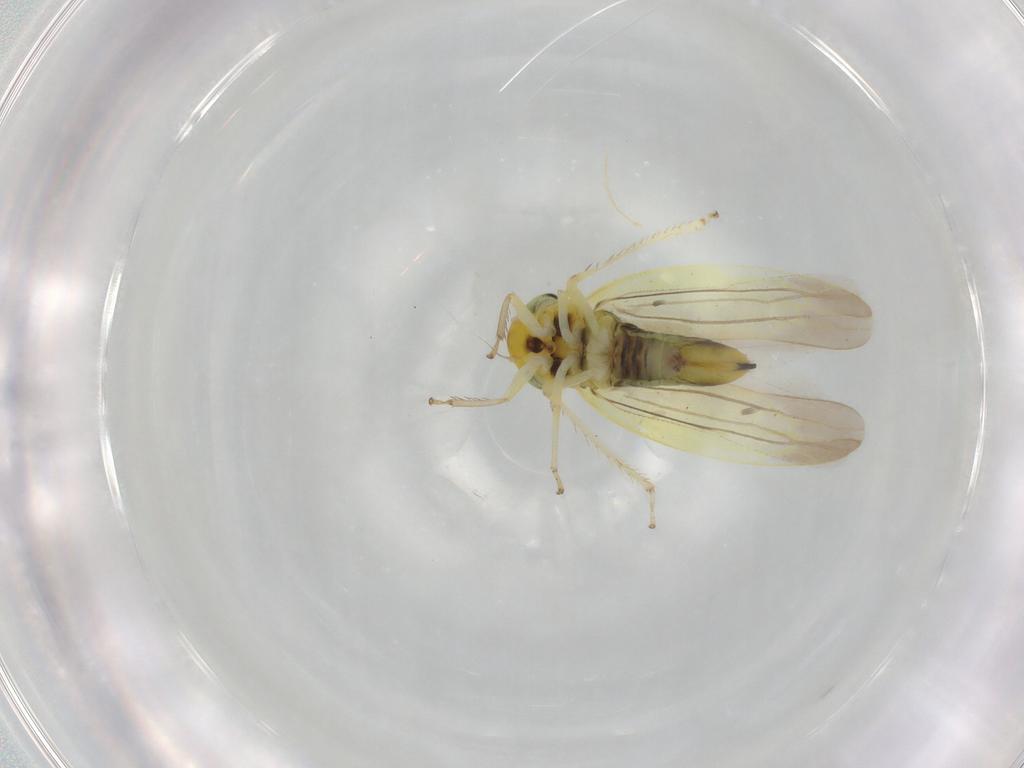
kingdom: Animalia
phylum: Arthropoda
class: Insecta
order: Hemiptera
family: Cicadellidae
